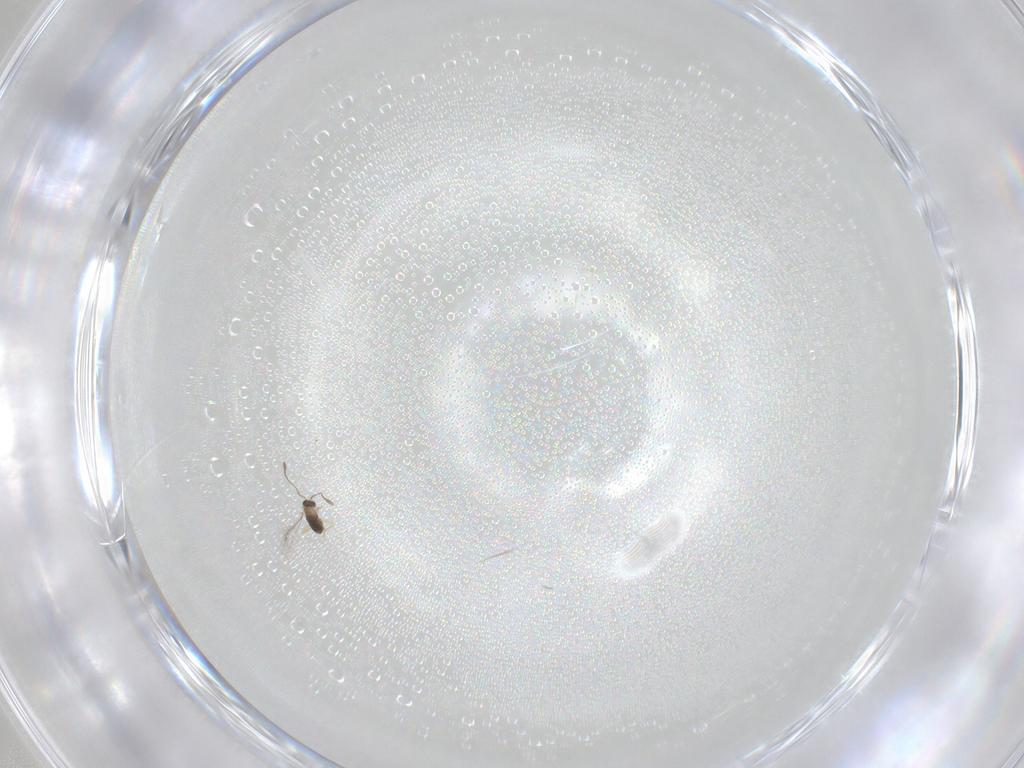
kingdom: Animalia
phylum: Arthropoda
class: Insecta
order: Hymenoptera
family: Mymaridae
